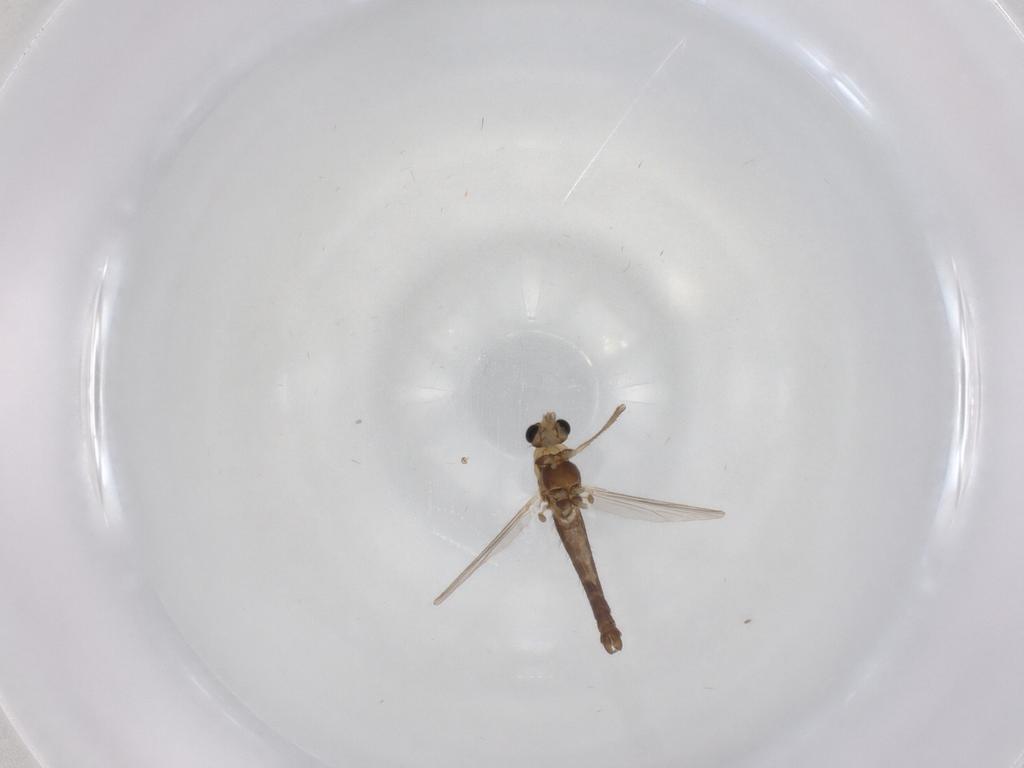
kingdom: Animalia
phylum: Arthropoda
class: Insecta
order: Diptera
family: Chironomidae
